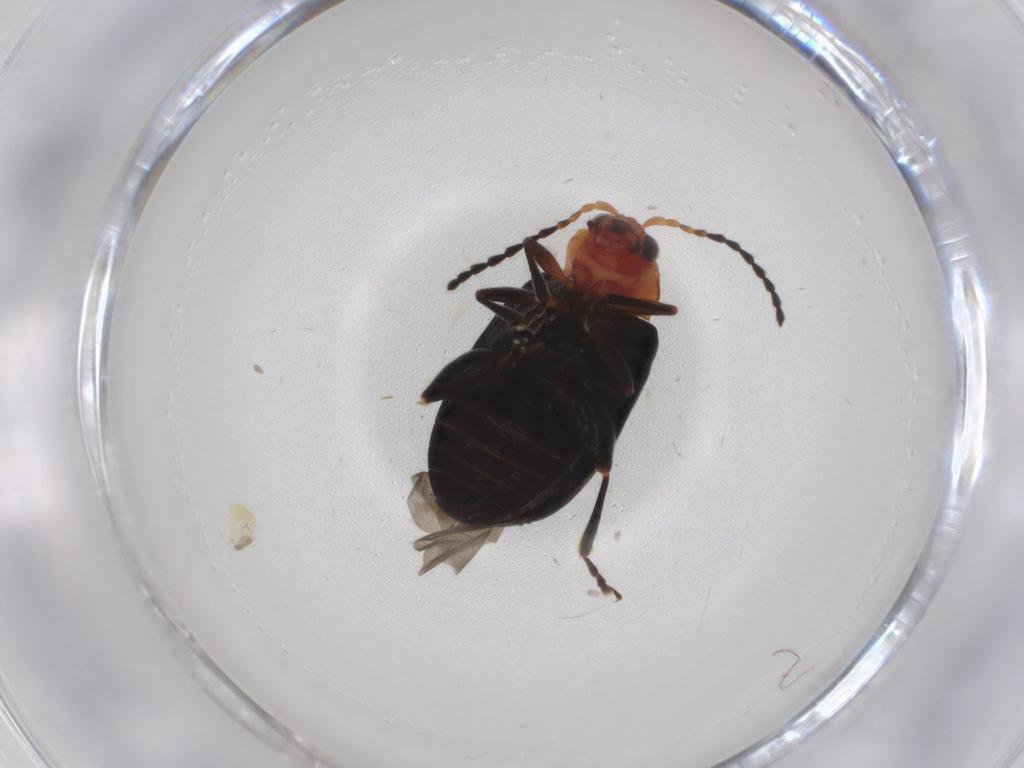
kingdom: Animalia
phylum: Arthropoda
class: Insecta
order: Coleoptera
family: Chrysomelidae
